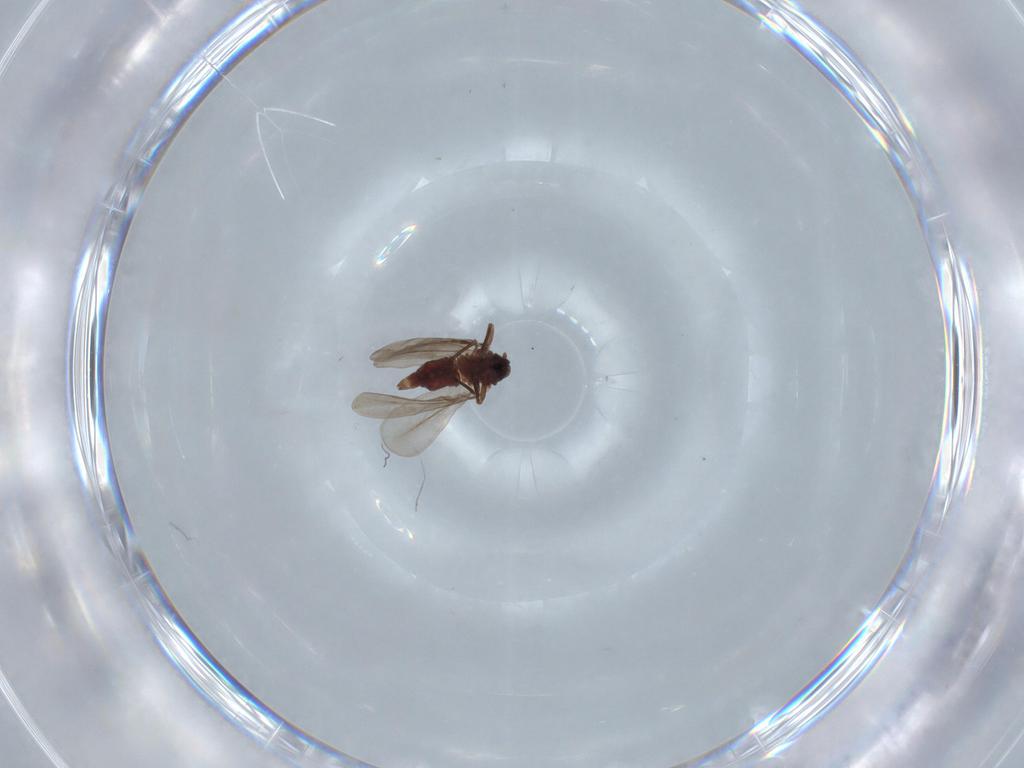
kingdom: Animalia
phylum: Arthropoda
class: Insecta
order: Hemiptera
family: Aleyrodidae
